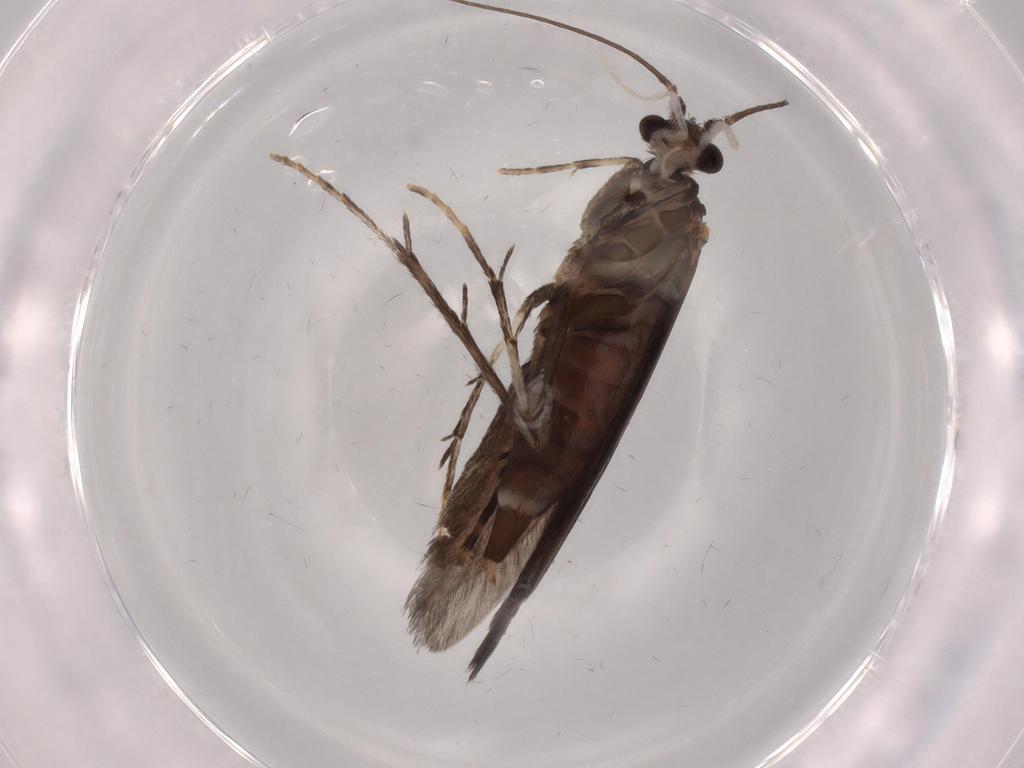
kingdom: Animalia
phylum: Arthropoda
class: Insecta
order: Trichoptera
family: Xiphocentronidae
